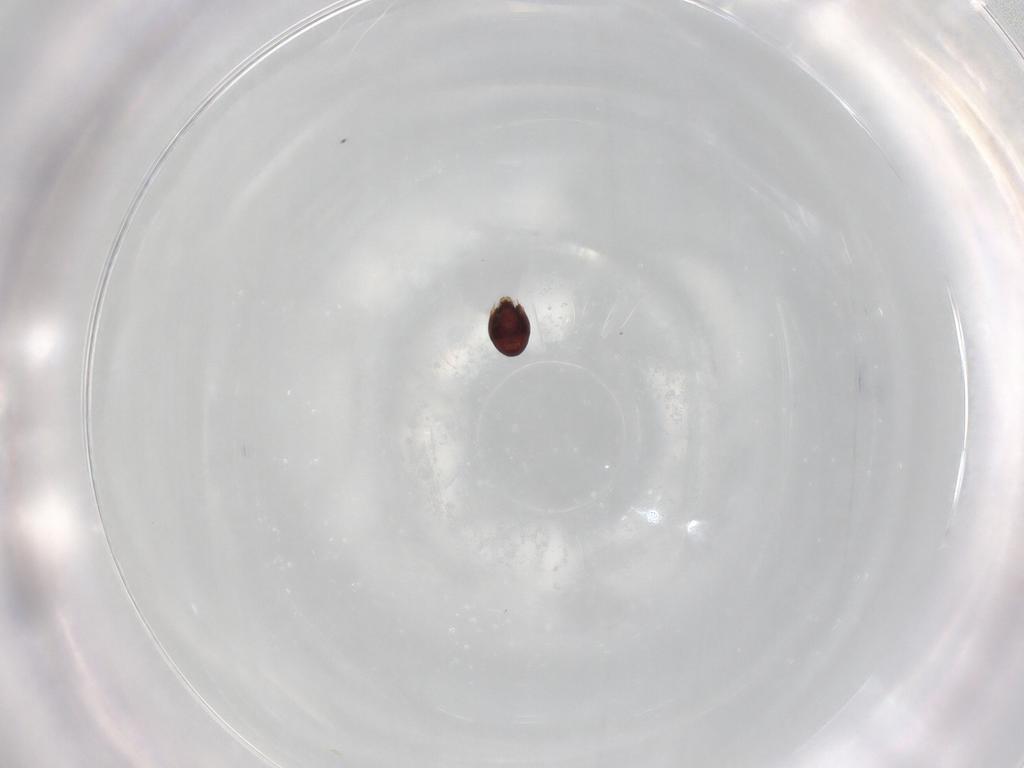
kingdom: Animalia
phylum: Arthropoda
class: Arachnida
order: Sarcoptiformes
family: Achipteriidae
